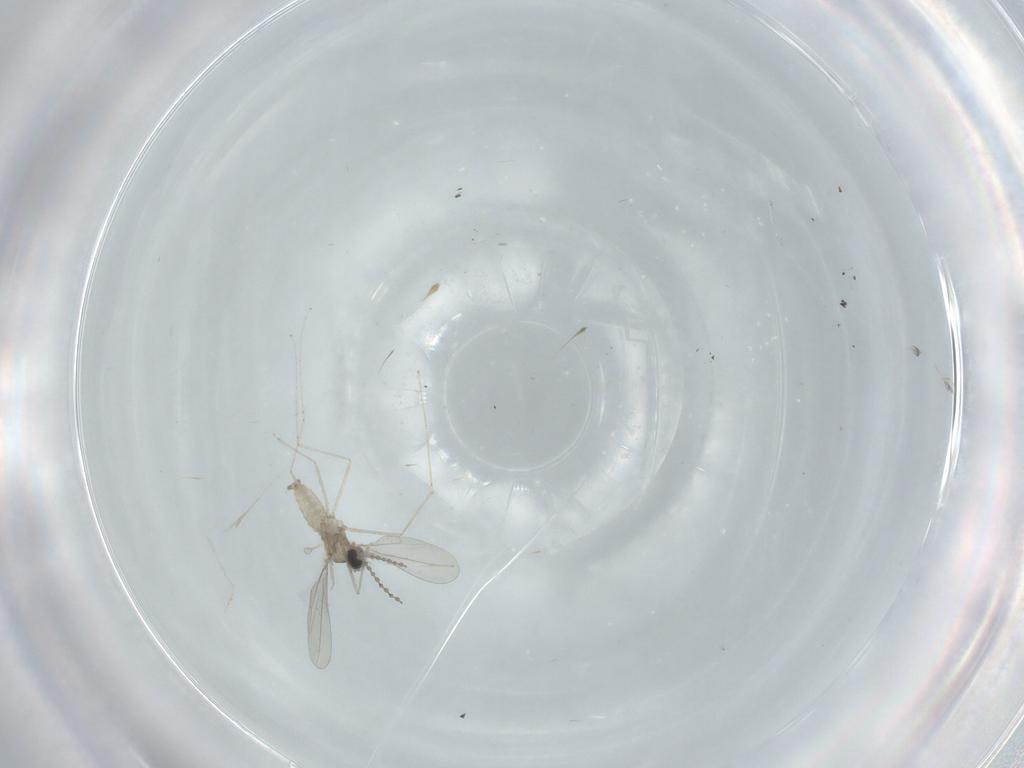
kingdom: Animalia
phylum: Arthropoda
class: Insecta
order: Diptera
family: Cecidomyiidae
